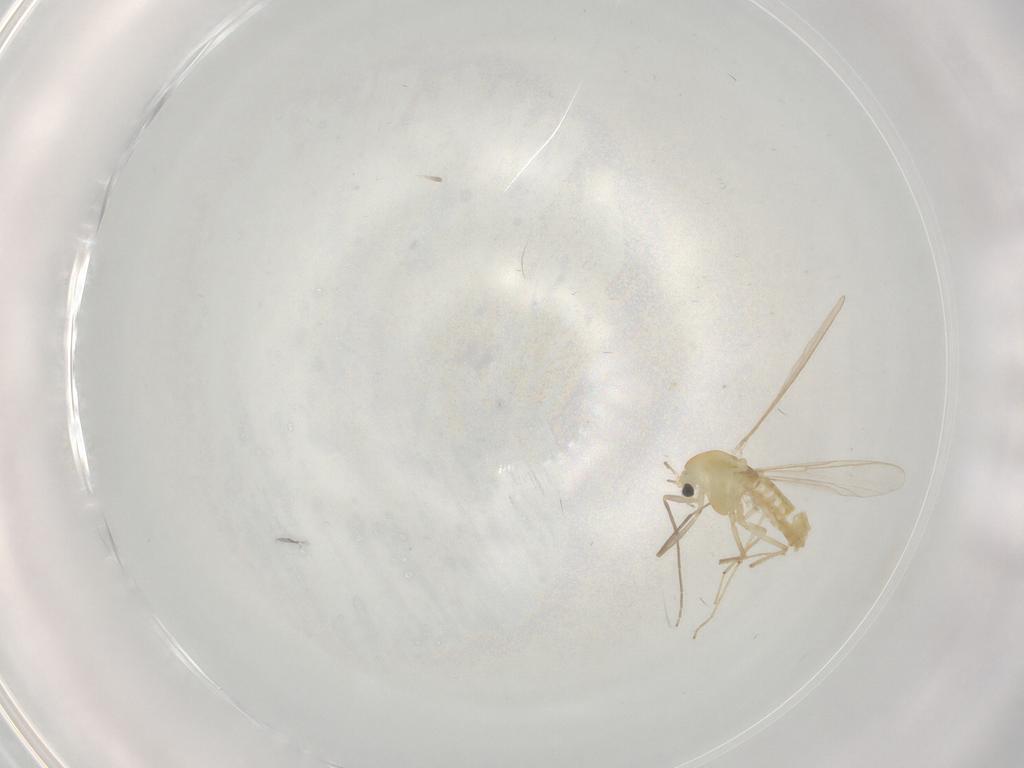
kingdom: Animalia
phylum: Arthropoda
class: Insecta
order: Diptera
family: Chironomidae
